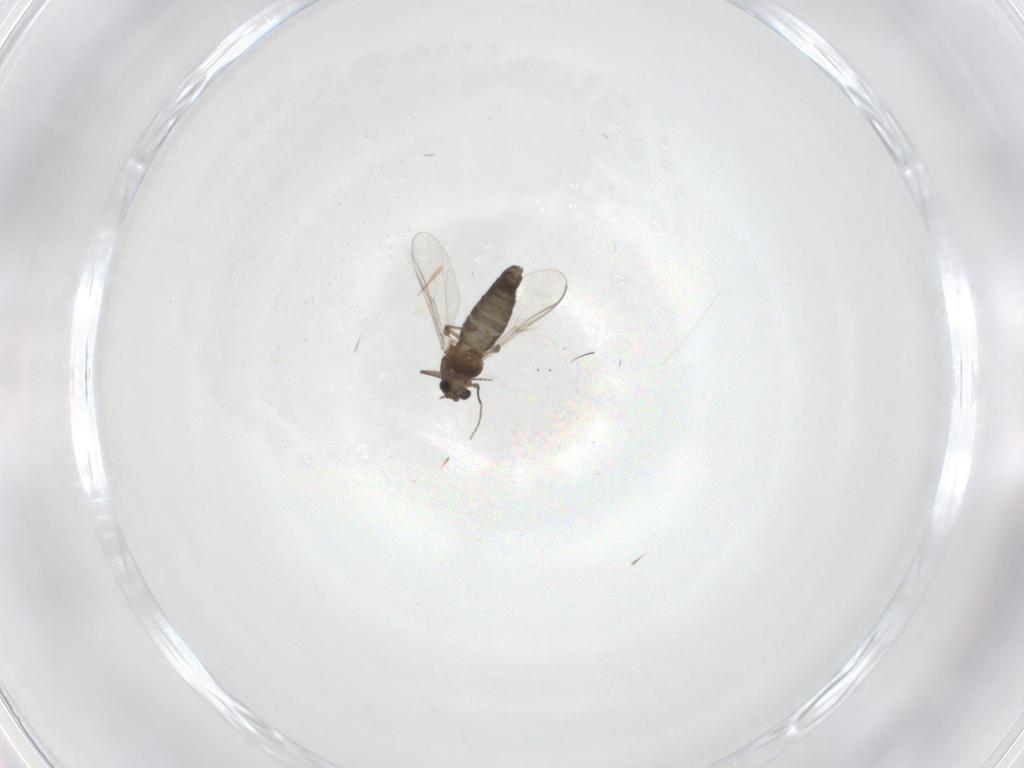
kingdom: Animalia
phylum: Arthropoda
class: Insecta
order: Diptera
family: Chironomidae
